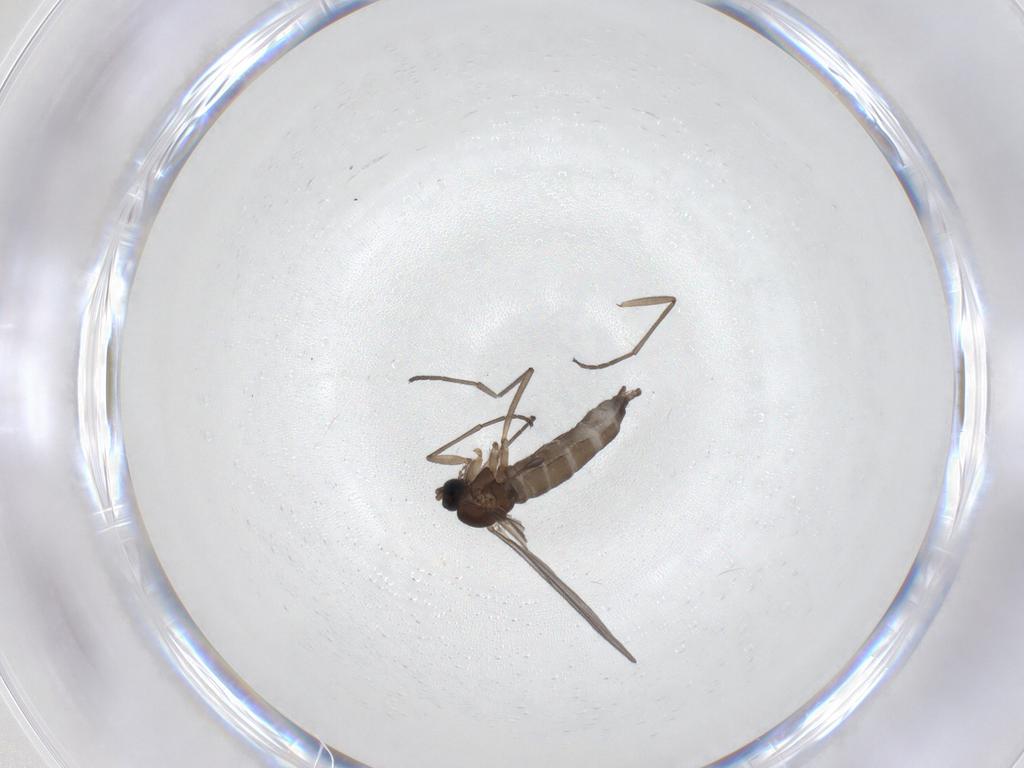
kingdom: Animalia
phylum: Arthropoda
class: Insecta
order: Diptera
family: Sciaridae
